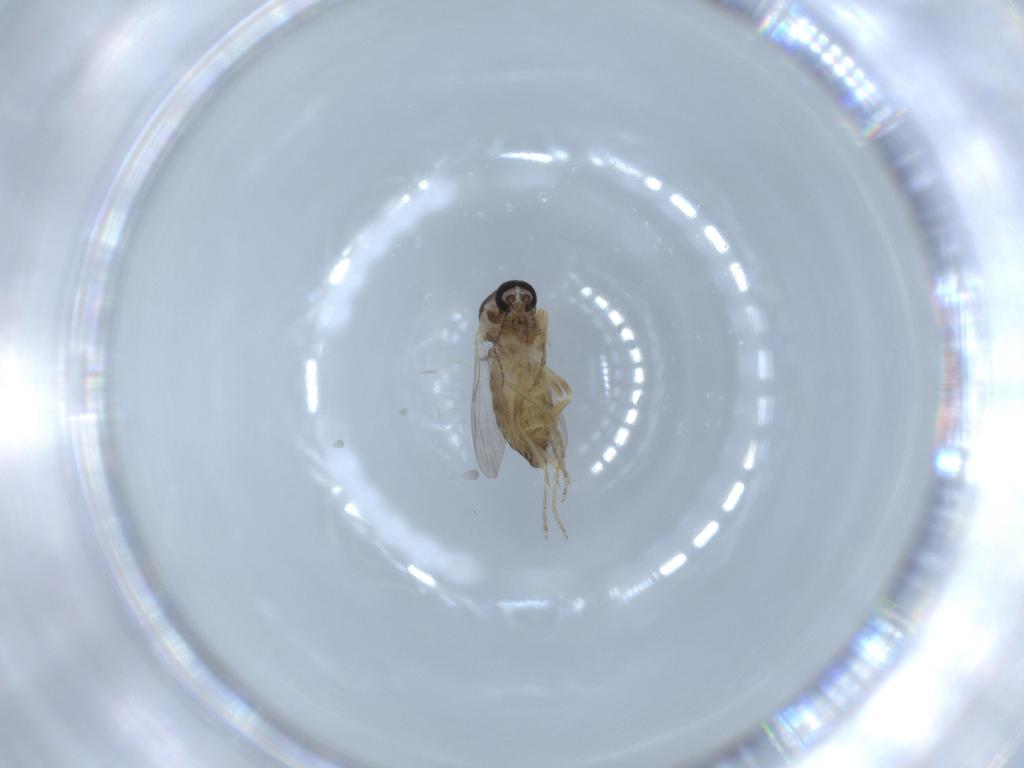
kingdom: Animalia
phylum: Arthropoda
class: Insecta
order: Diptera
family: Ceratopogonidae
